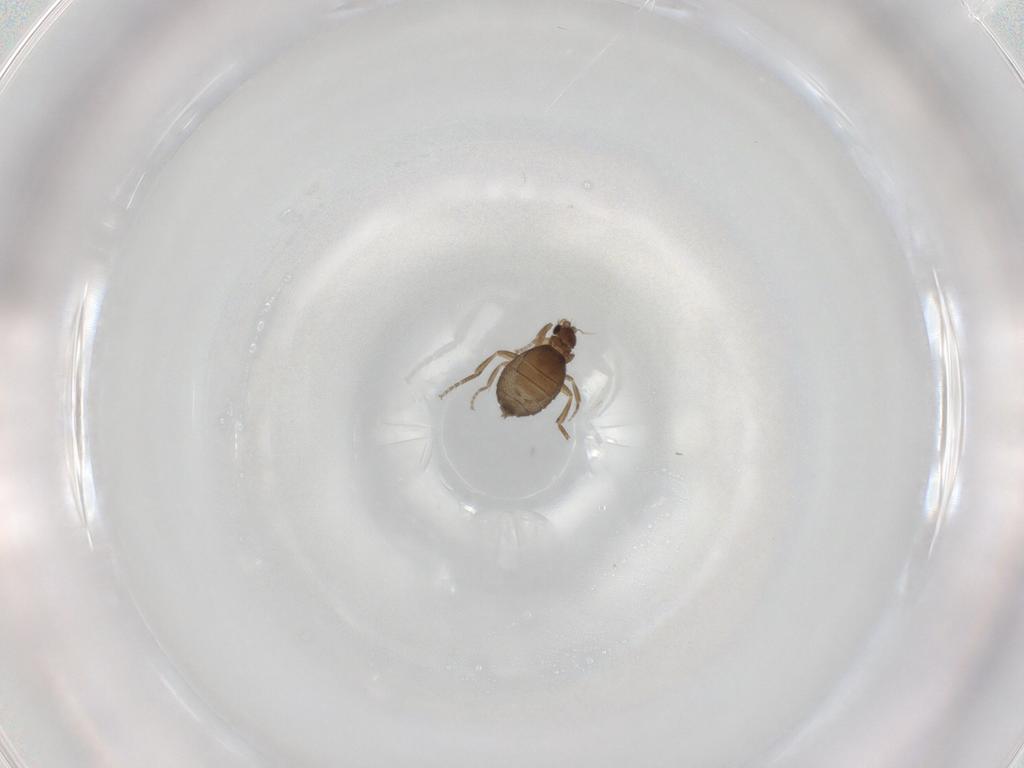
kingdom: Animalia
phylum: Arthropoda
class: Insecta
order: Diptera
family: Chironomidae
